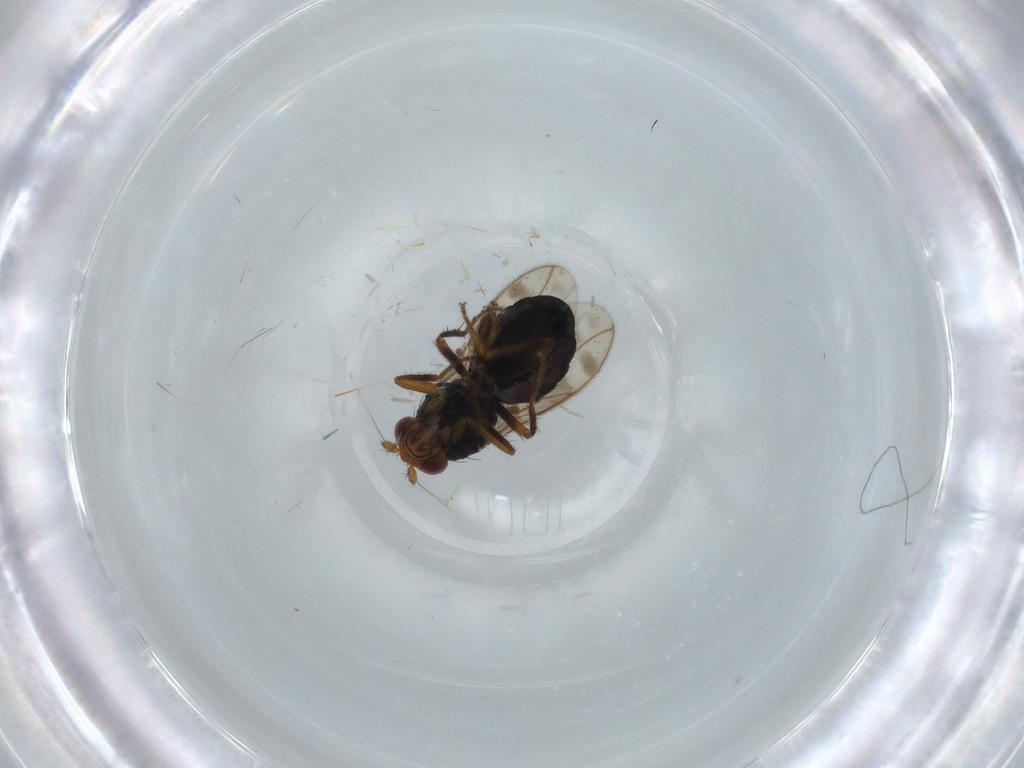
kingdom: Animalia
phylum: Arthropoda
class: Insecta
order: Diptera
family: Sphaeroceridae
